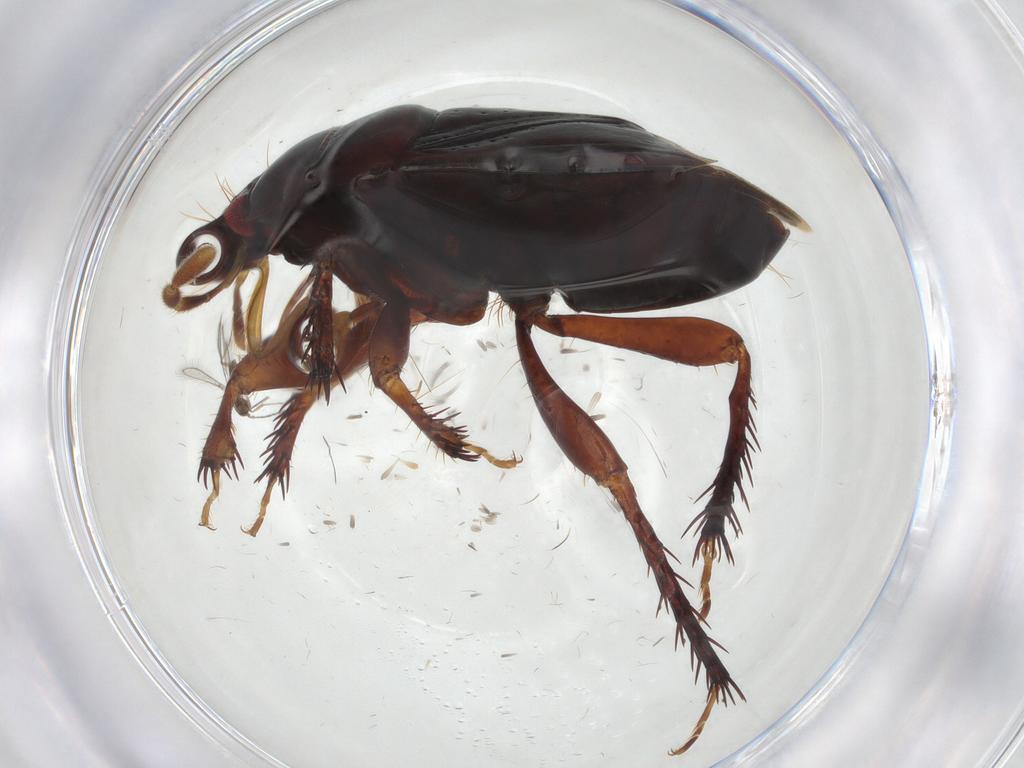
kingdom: Animalia
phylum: Arthropoda
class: Insecta
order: Hemiptera
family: Cydnidae
